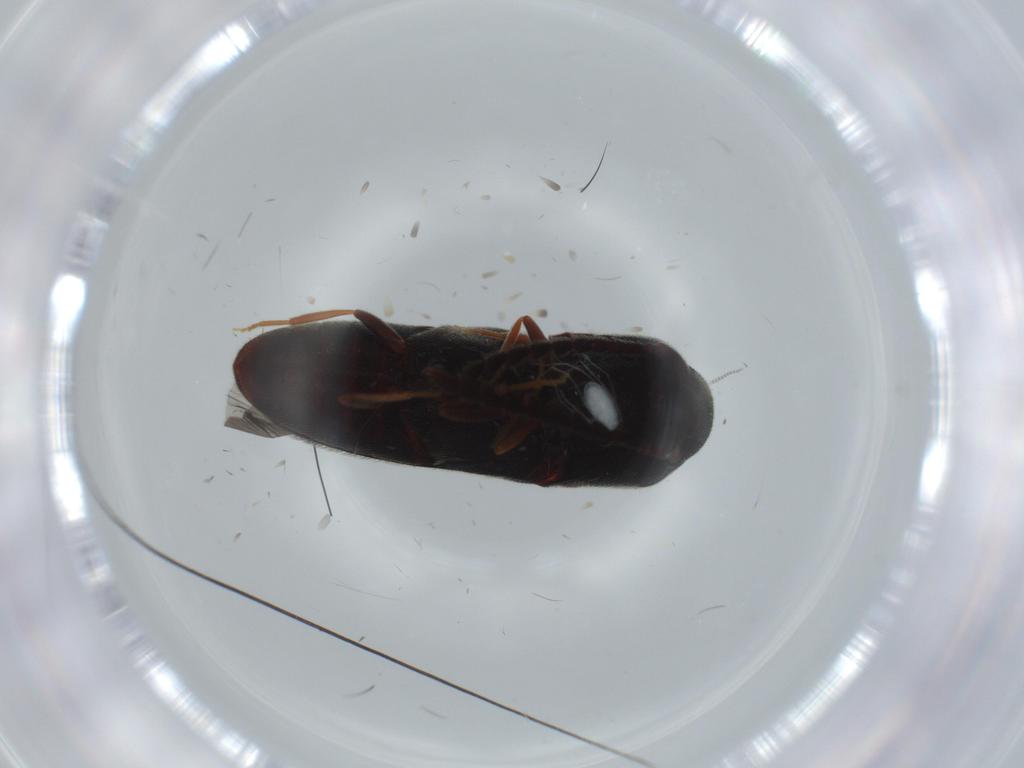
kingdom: Animalia
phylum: Arthropoda
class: Insecta
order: Coleoptera
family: Eucnemidae
